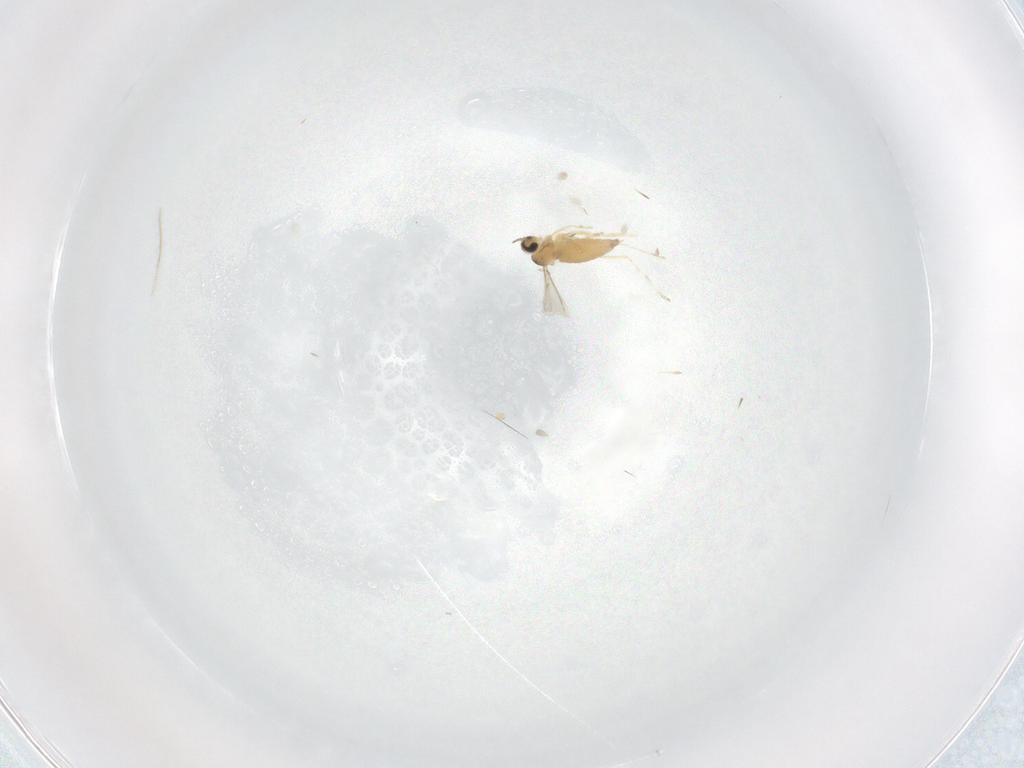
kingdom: Animalia
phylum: Arthropoda
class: Insecta
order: Diptera
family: Cecidomyiidae
